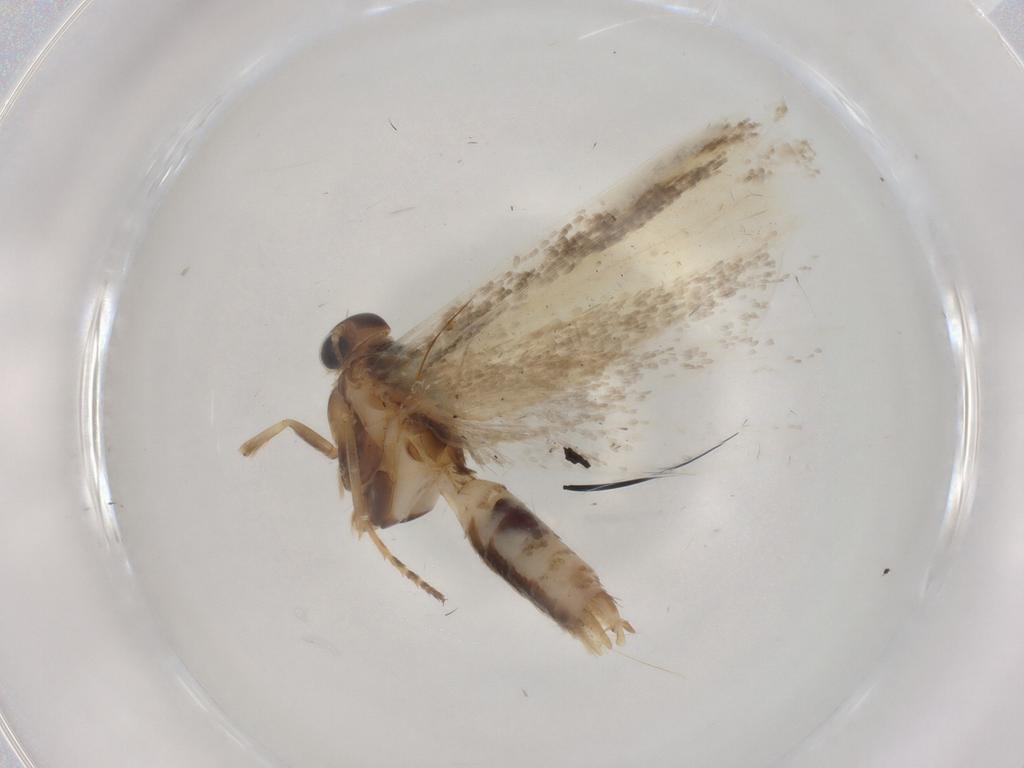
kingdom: Animalia
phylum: Arthropoda
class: Insecta
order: Lepidoptera
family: Gelechiidae
